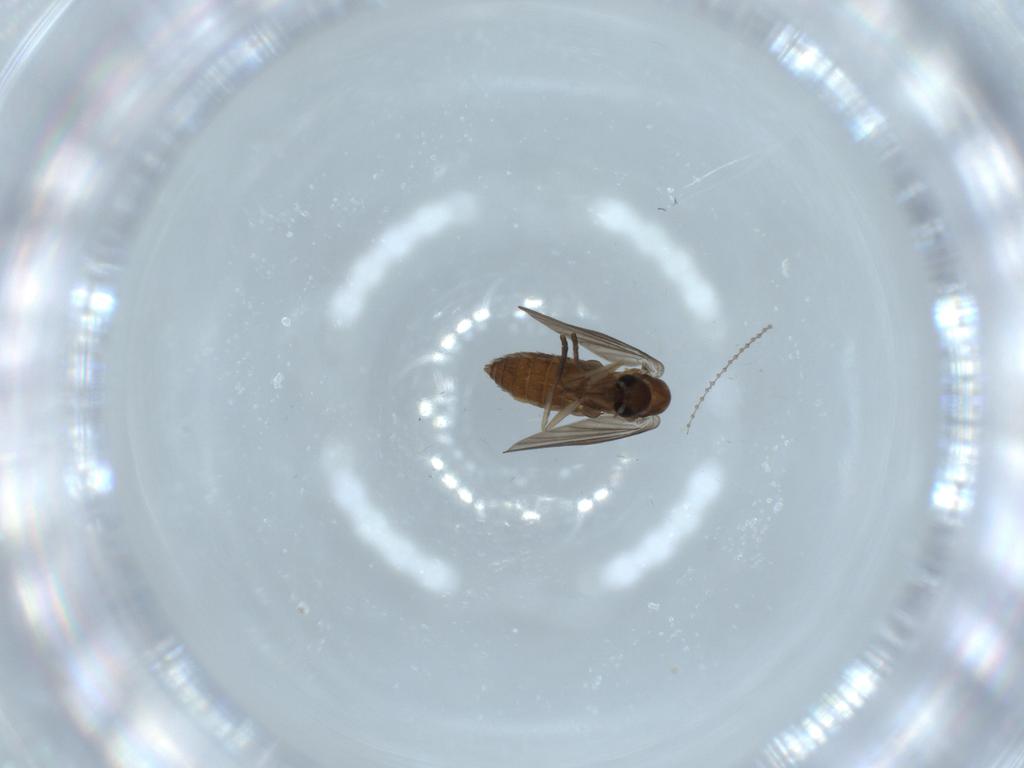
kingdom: Animalia
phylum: Arthropoda
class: Insecta
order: Diptera
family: Psychodidae
